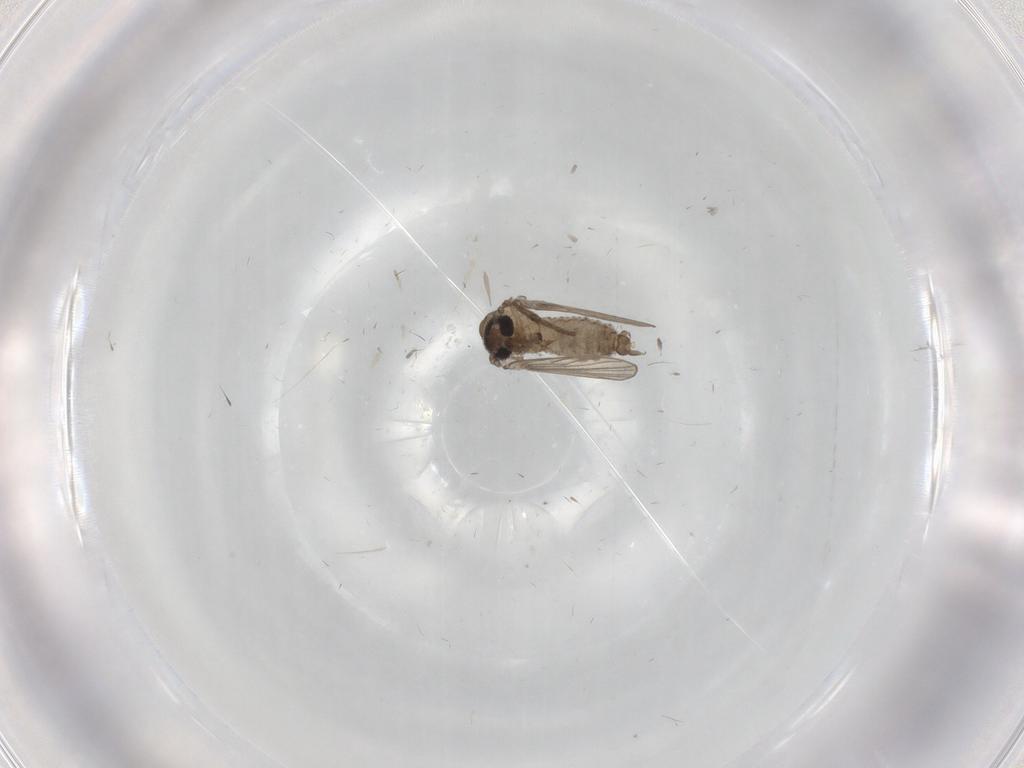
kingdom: Animalia
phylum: Arthropoda
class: Insecta
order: Diptera
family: Psychodidae
